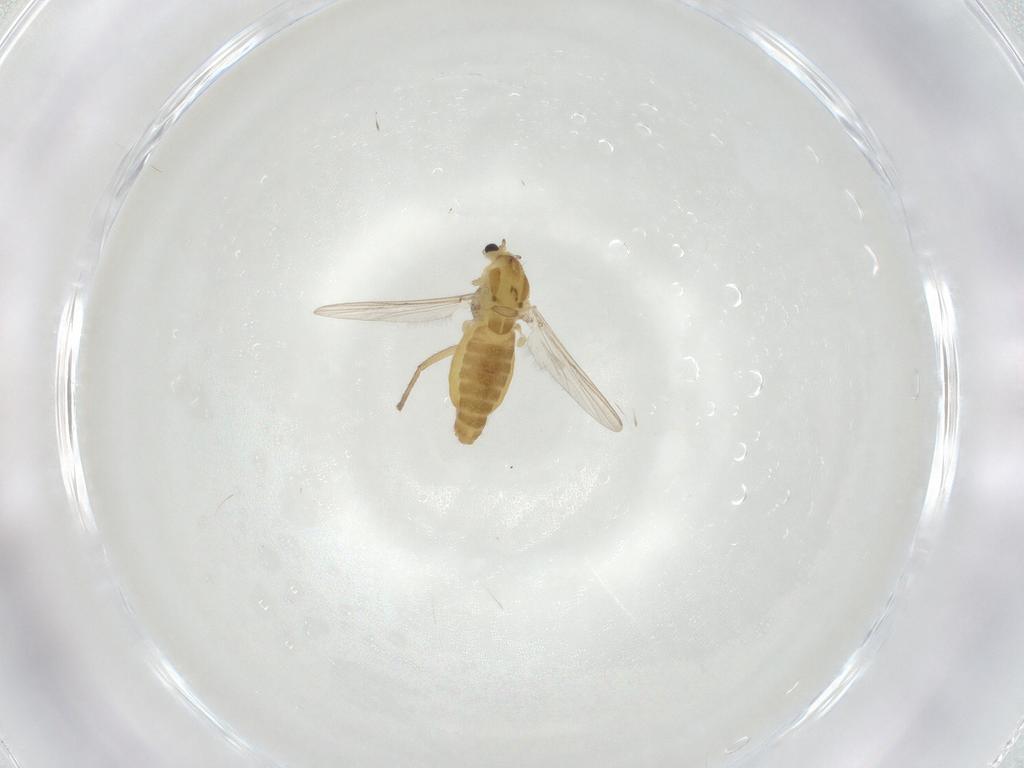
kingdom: Animalia
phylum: Arthropoda
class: Insecta
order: Diptera
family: Chironomidae
